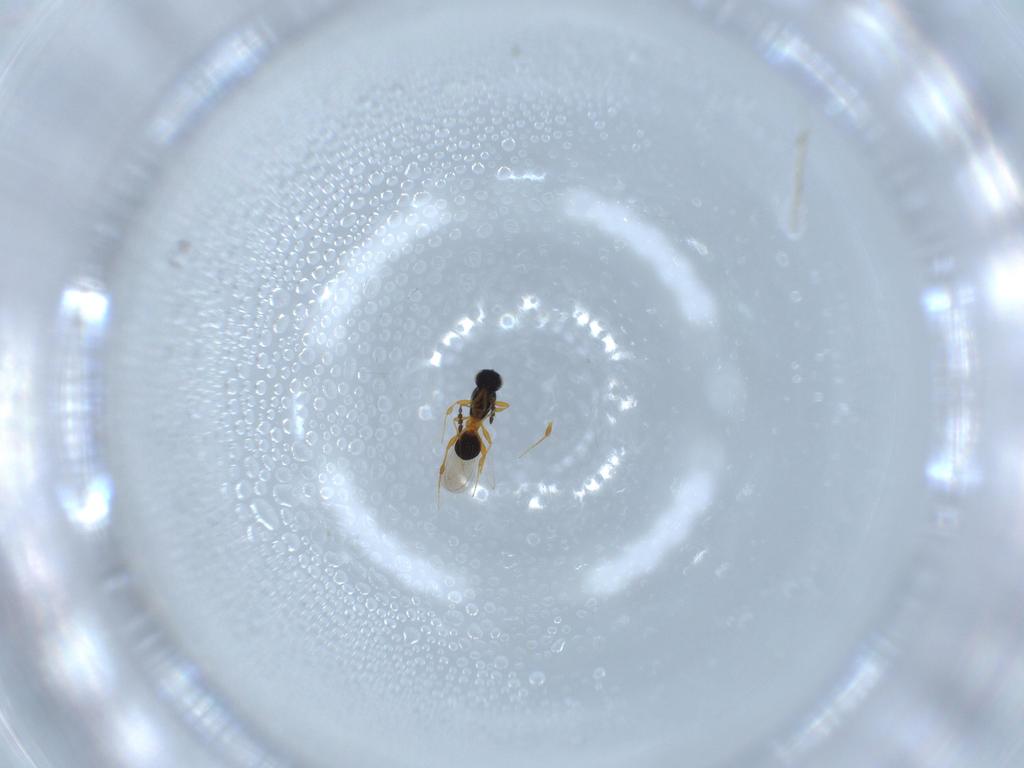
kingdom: Animalia
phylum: Arthropoda
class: Insecta
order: Hymenoptera
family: Platygastridae
